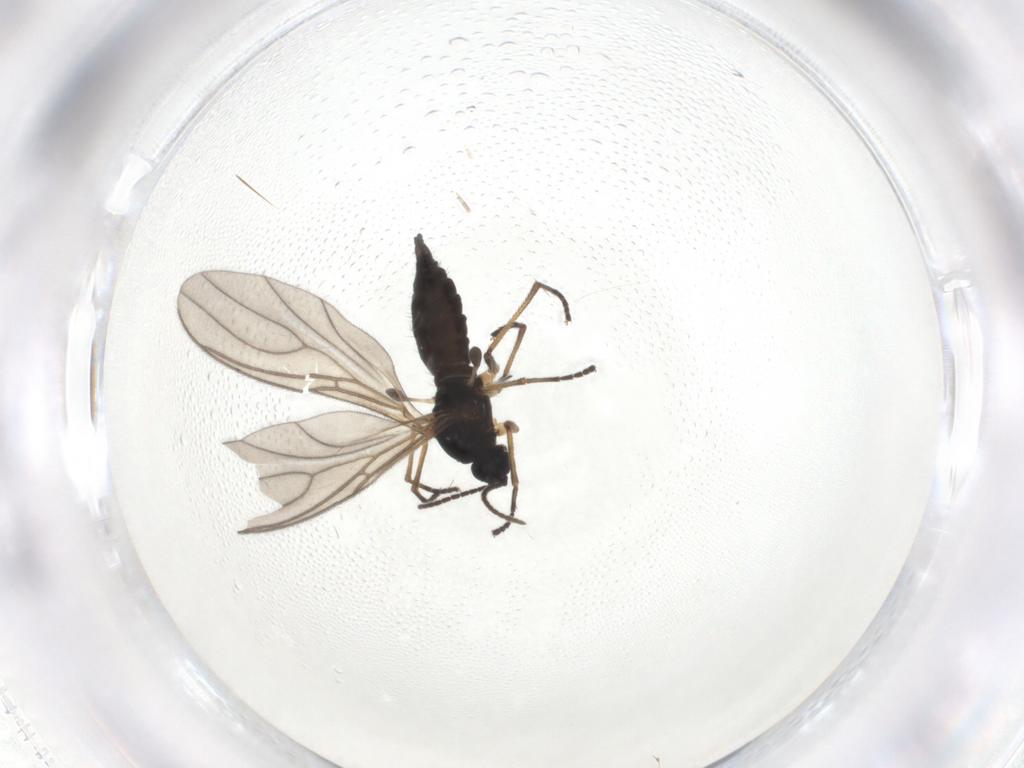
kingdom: Animalia
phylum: Arthropoda
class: Insecta
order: Diptera
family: Sciaridae
